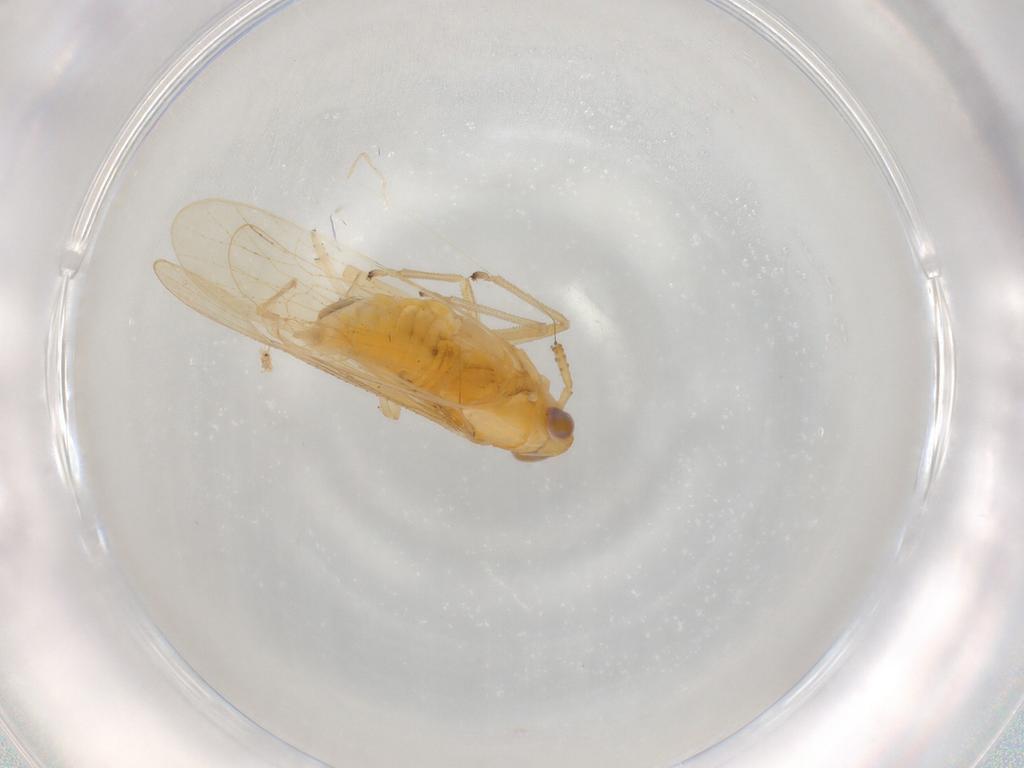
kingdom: Animalia
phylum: Arthropoda
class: Insecta
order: Hemiptera
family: Delphacidae
